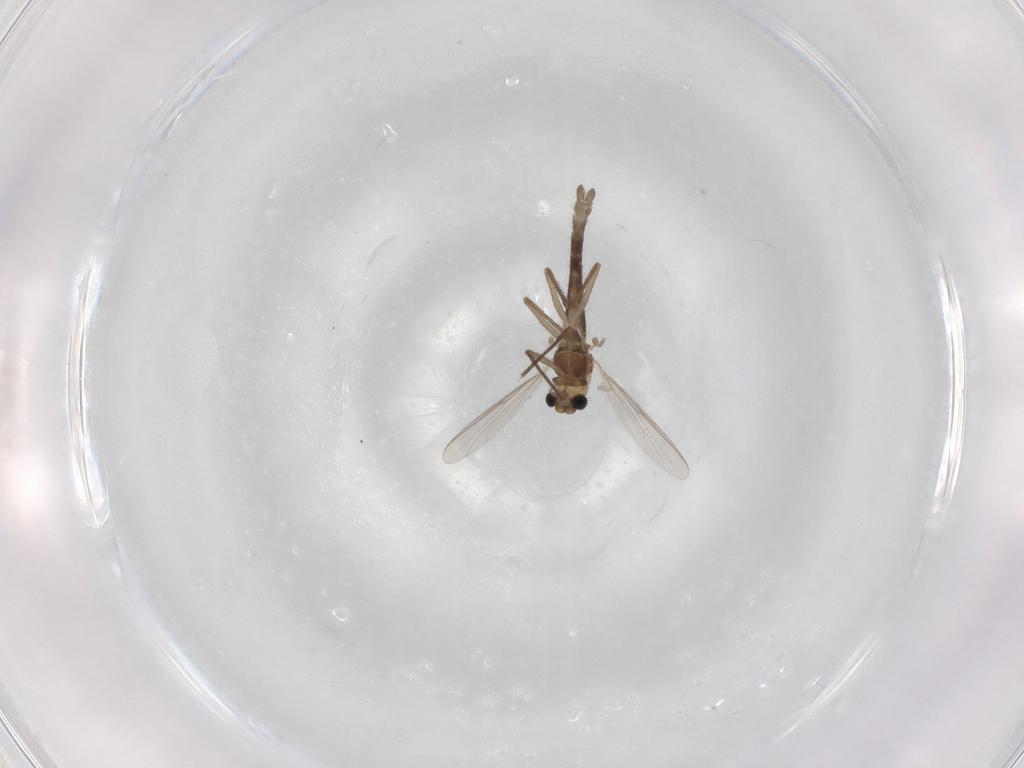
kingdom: Animalia
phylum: Arthropoda
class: Insecta
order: Diptera
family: Chironomidae
